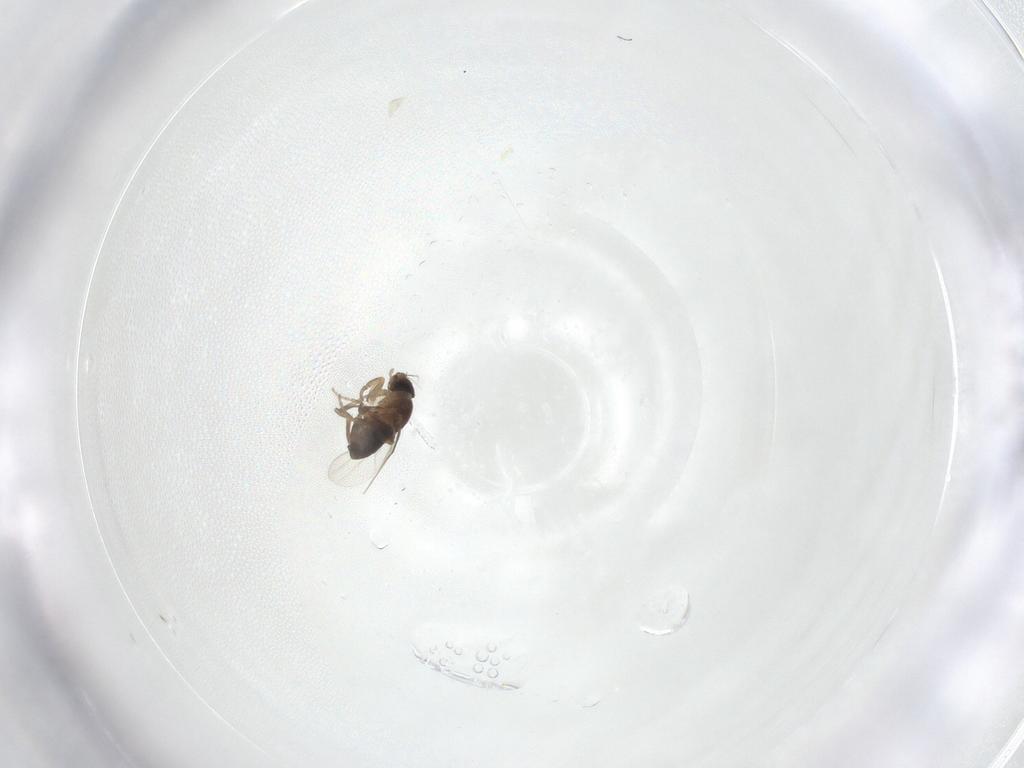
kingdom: Animalia
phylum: Arthropoda
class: Insecta
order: Diptera
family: Phoridae
